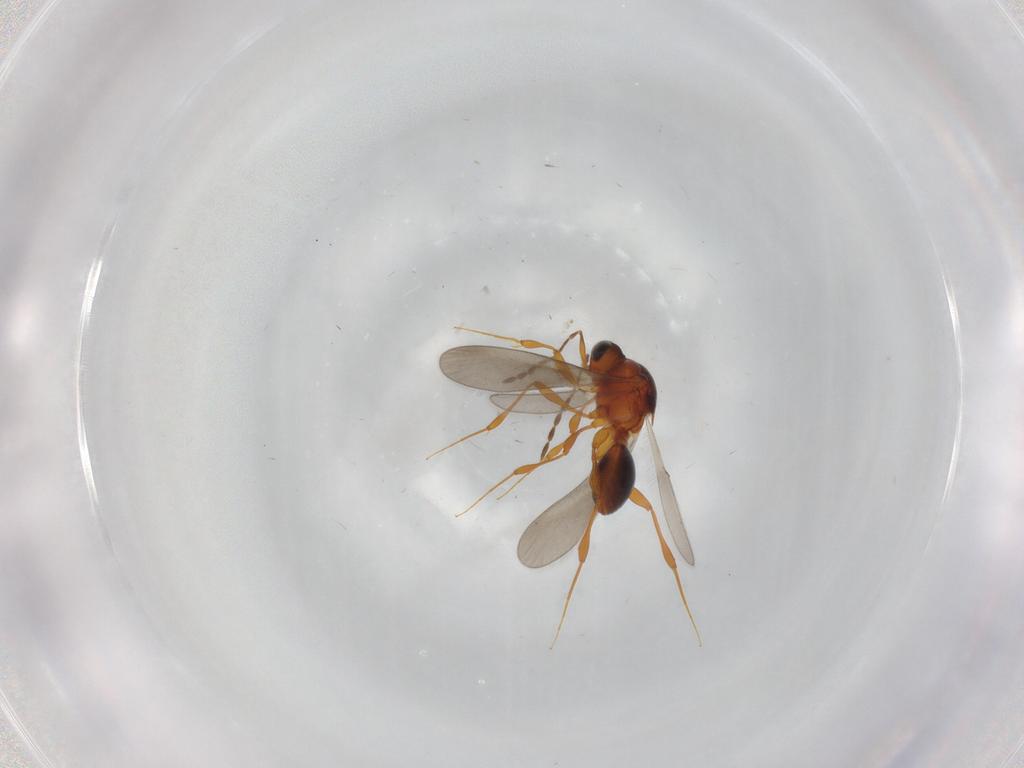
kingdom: Animalia
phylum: Arthropoda
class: Insecta
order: Hymenoptera
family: Platygastridae
